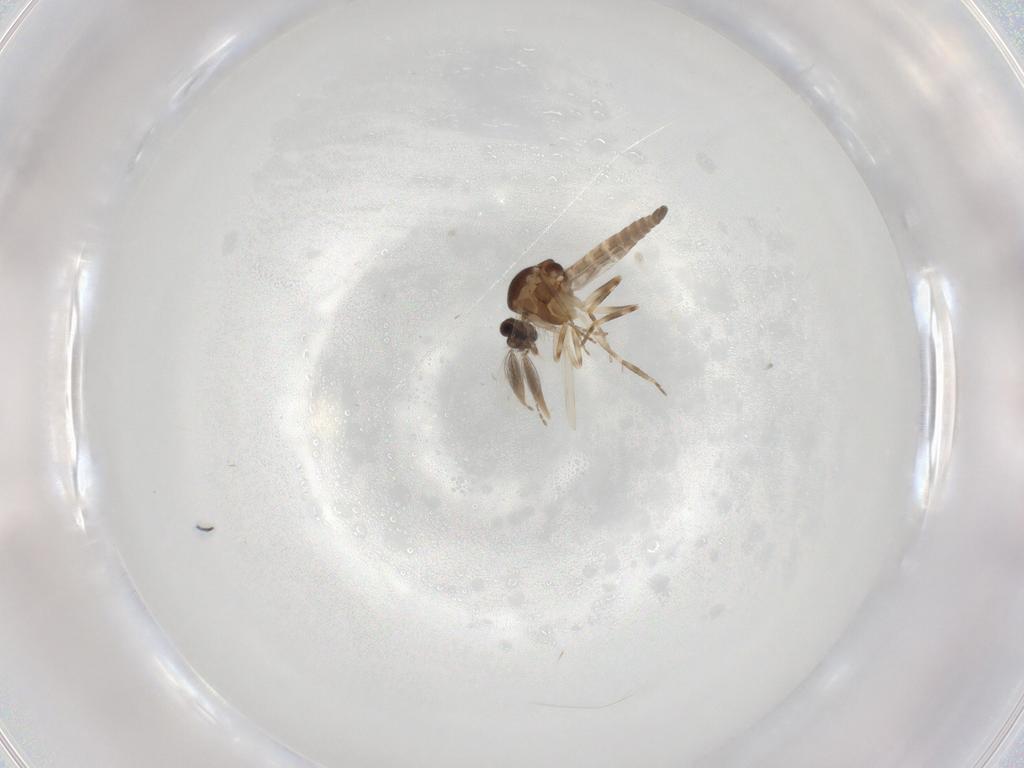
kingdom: Animalia
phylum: Arthropoda
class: Insecta
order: Diptera
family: Ceratopogonidae
